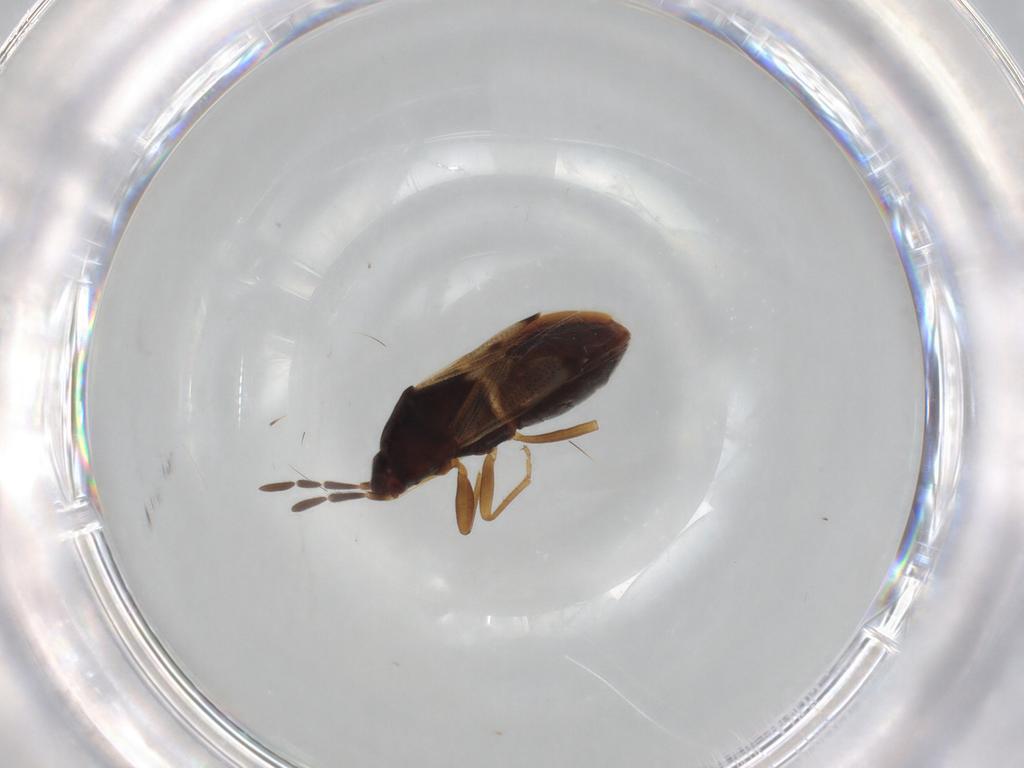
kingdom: Animalia
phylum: Arthropoda
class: Insecta
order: Hemiptera
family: Rhyparochromidae
